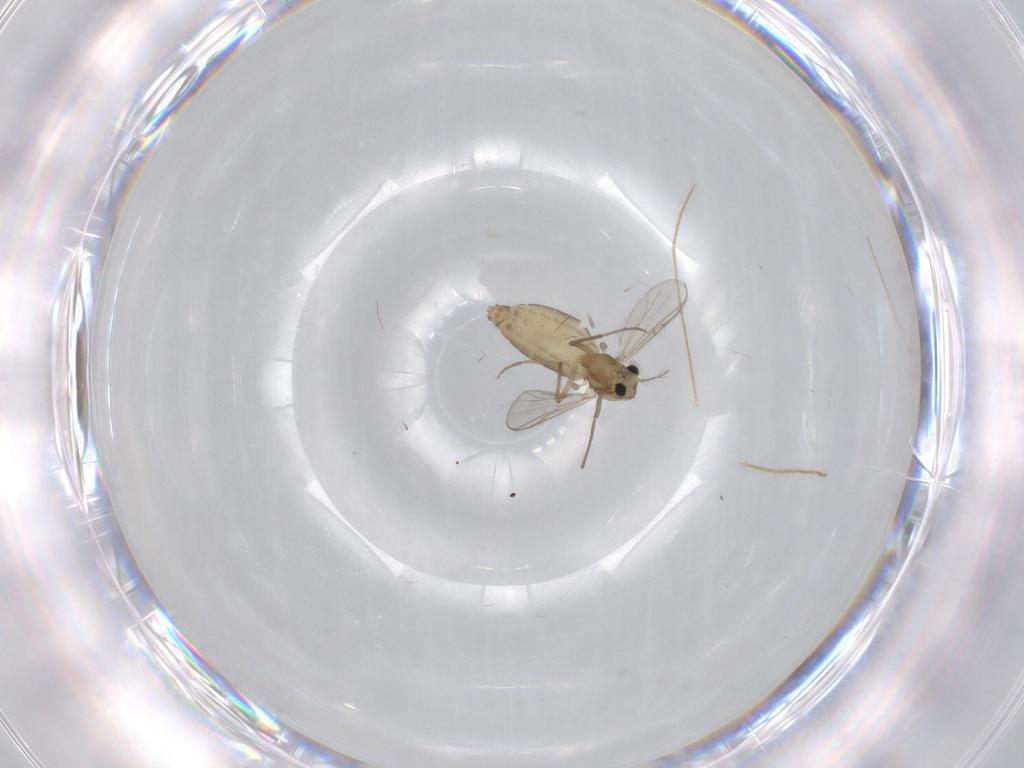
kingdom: Animalia
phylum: Arthropoda
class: Insecta
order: Diptera
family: Chironomidae
